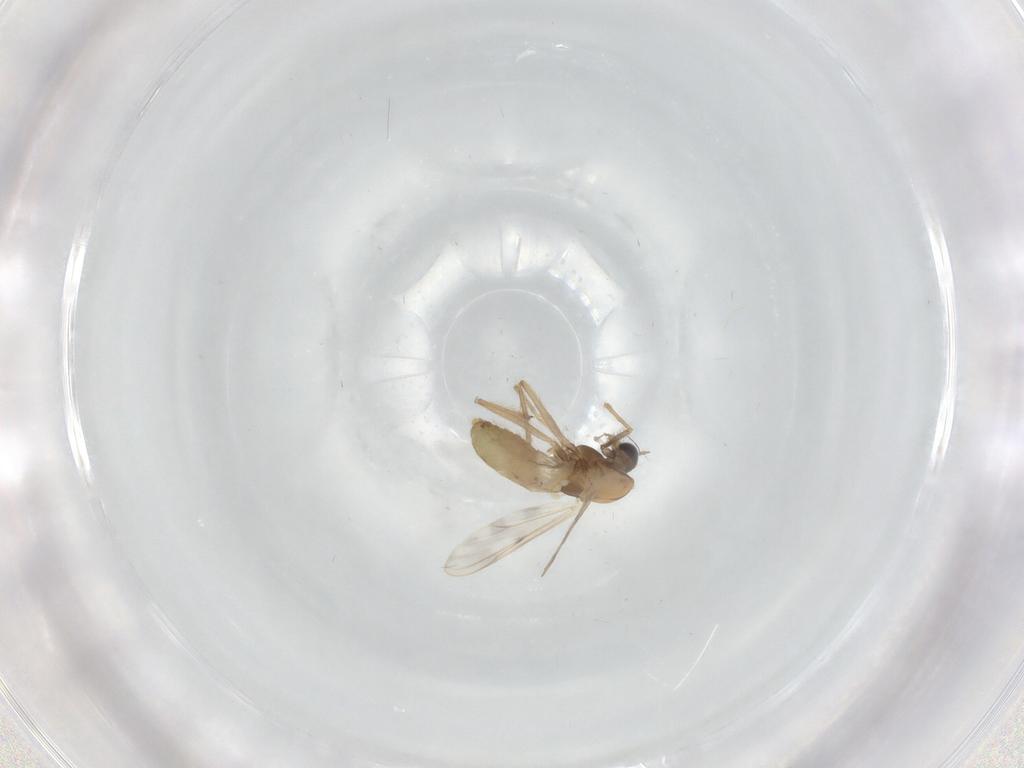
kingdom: Animalia
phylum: Arthropoda
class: Insecta
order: Diptera
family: Chironomidae
